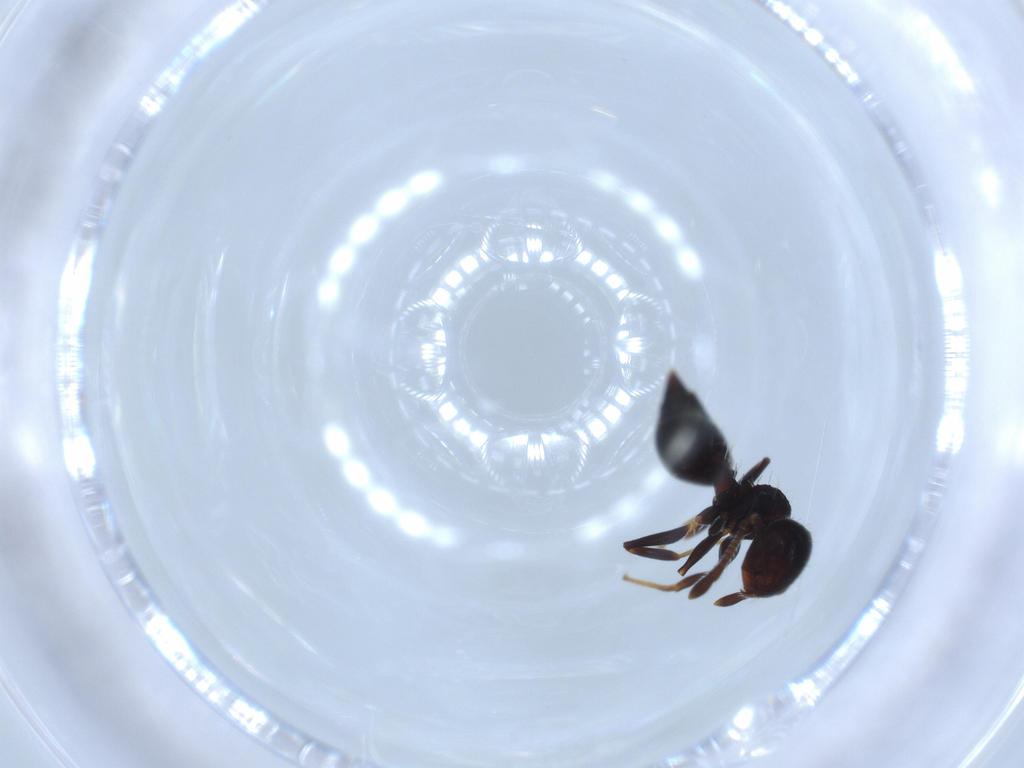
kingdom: Animalia
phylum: Arthropoda
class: Insecta
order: Hymenoptera
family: Formicidae
